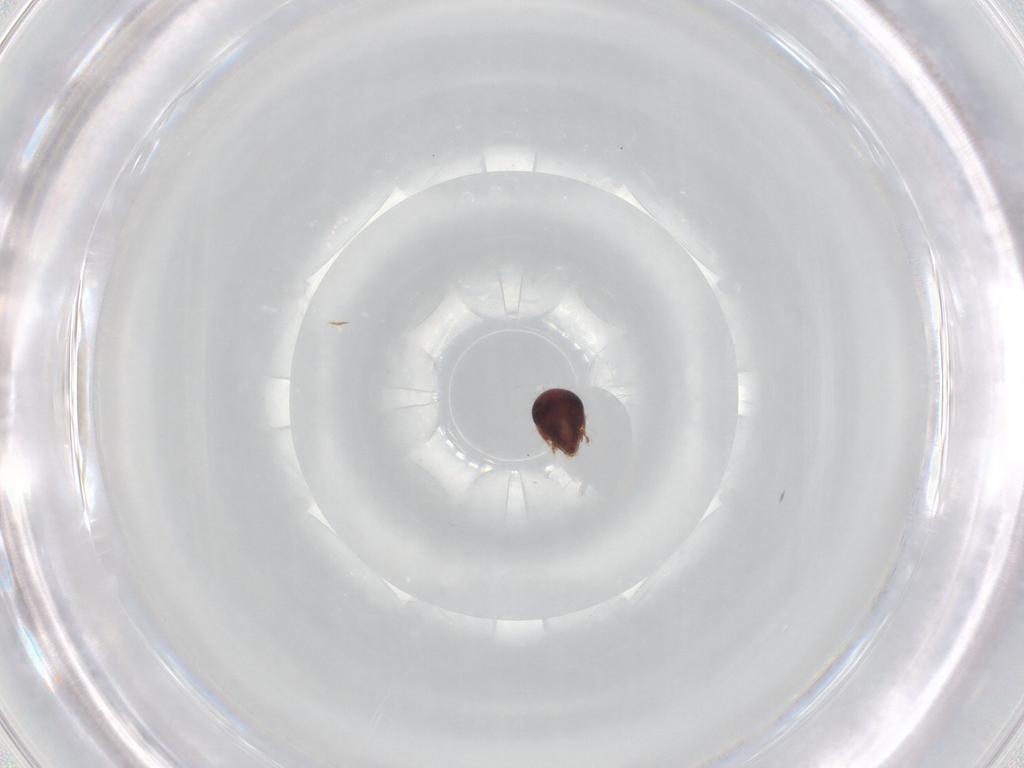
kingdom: Animalia
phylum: Arthropoda
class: Arachnida
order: Sarcoptiformes
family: Humerobatidae
